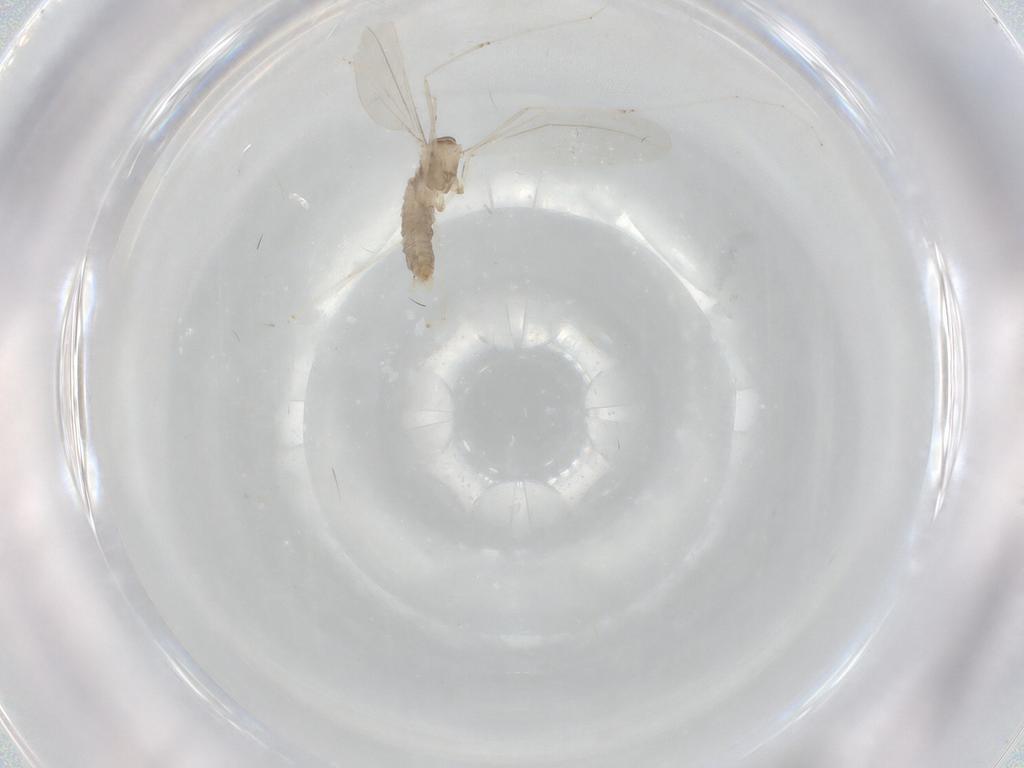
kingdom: Animalia
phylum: Arthropoda
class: Insecta
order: Diptera
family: Cecidomyiidae
